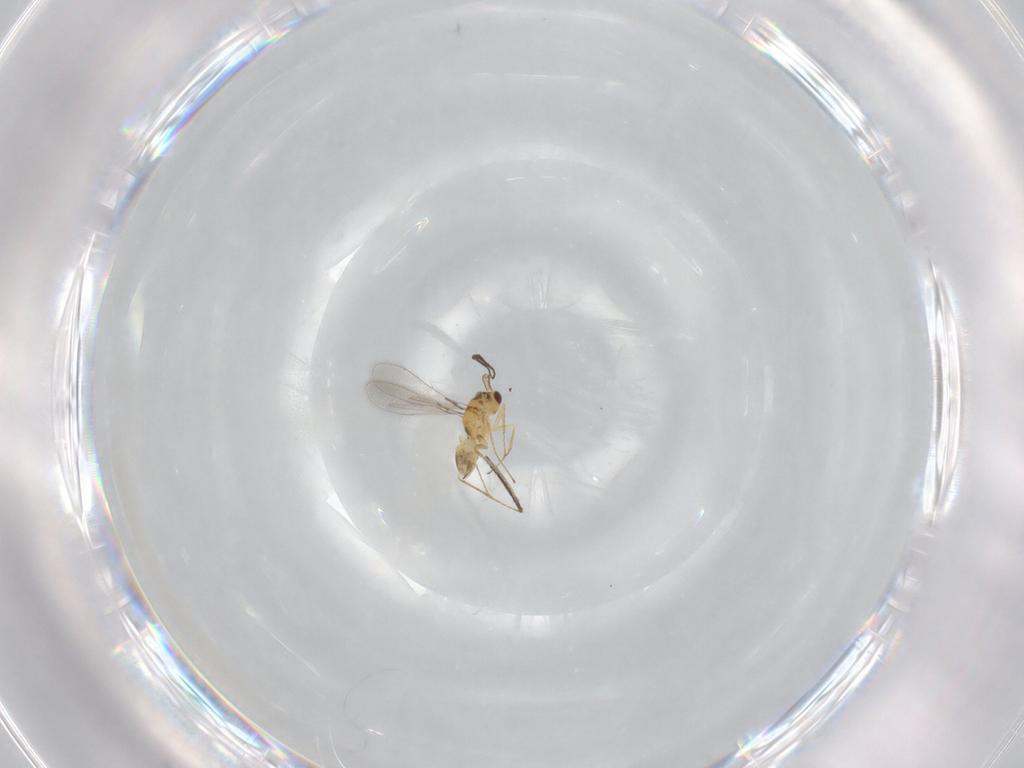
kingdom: Animalia
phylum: Arthropoda
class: Insecta
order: Hymenoptera
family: Mymaridae
